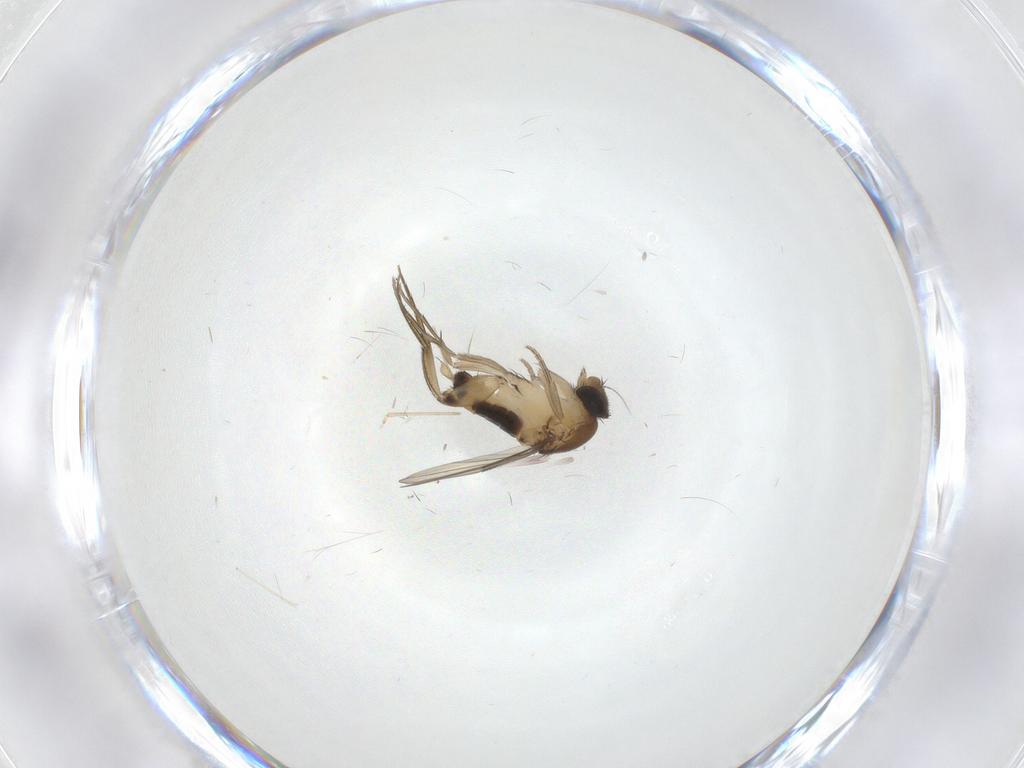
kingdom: Animalia
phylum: Arthropoda
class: Insecta
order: Diptera
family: Phoridae
